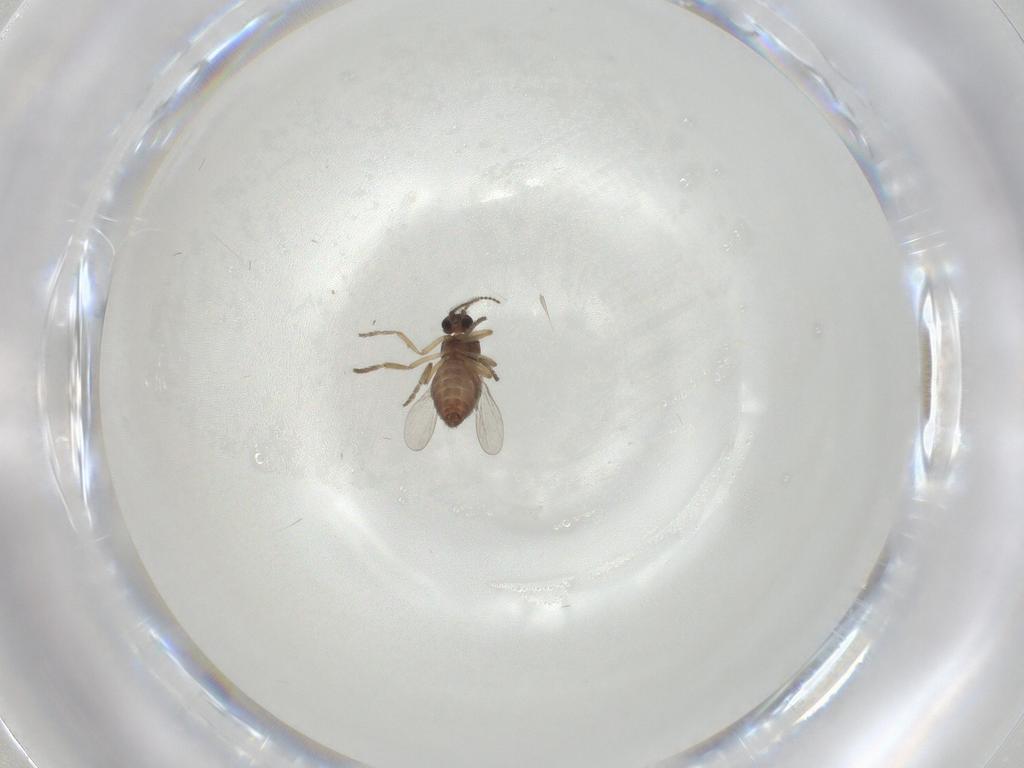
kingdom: Animalia
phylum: Arthropoda
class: Insecta
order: Diptera
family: Ceratopogonidae
